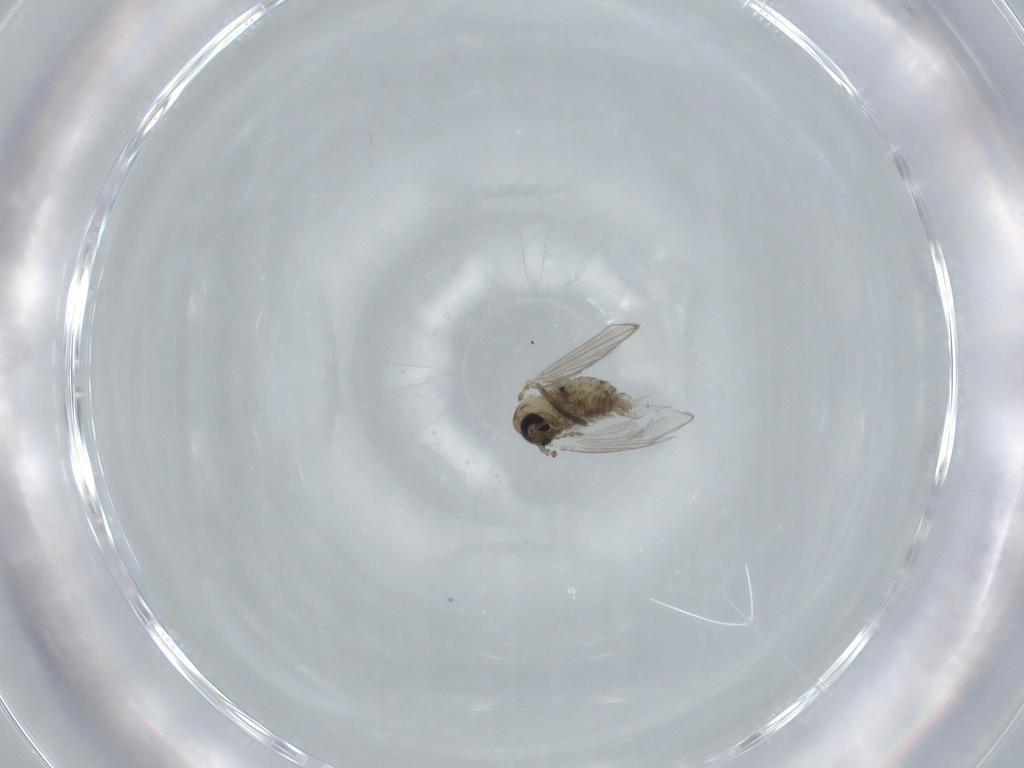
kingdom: Animalia
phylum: Arthropoda
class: Insecta
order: Diptera
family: Psychodidae
